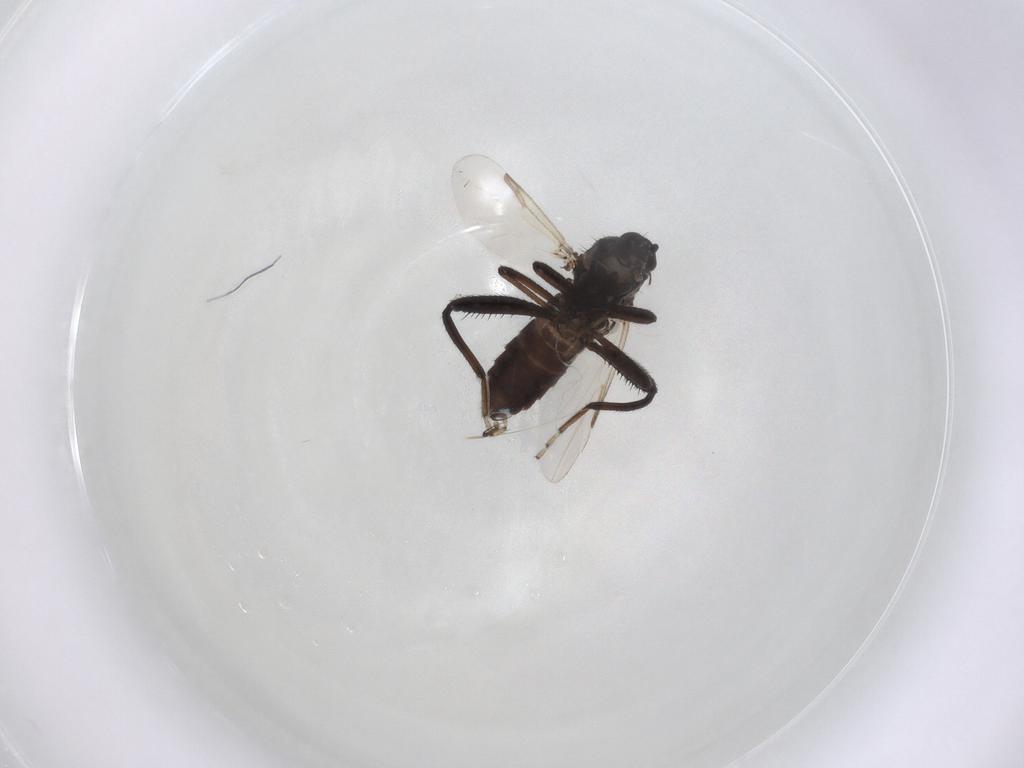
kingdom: Animalia
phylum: Arthropoda
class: Insecta
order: Diptera
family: Ceratopogonidae
